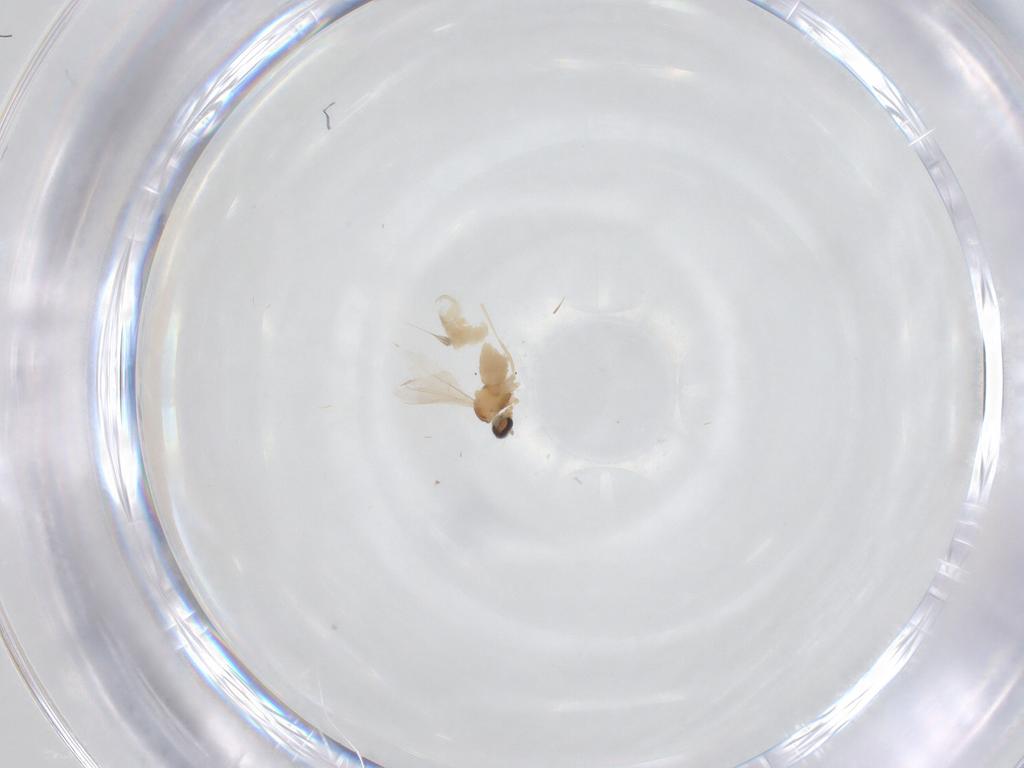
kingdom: Animalia
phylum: Arthropoda
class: Insecta
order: Diptera
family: Cecidomyiidae
